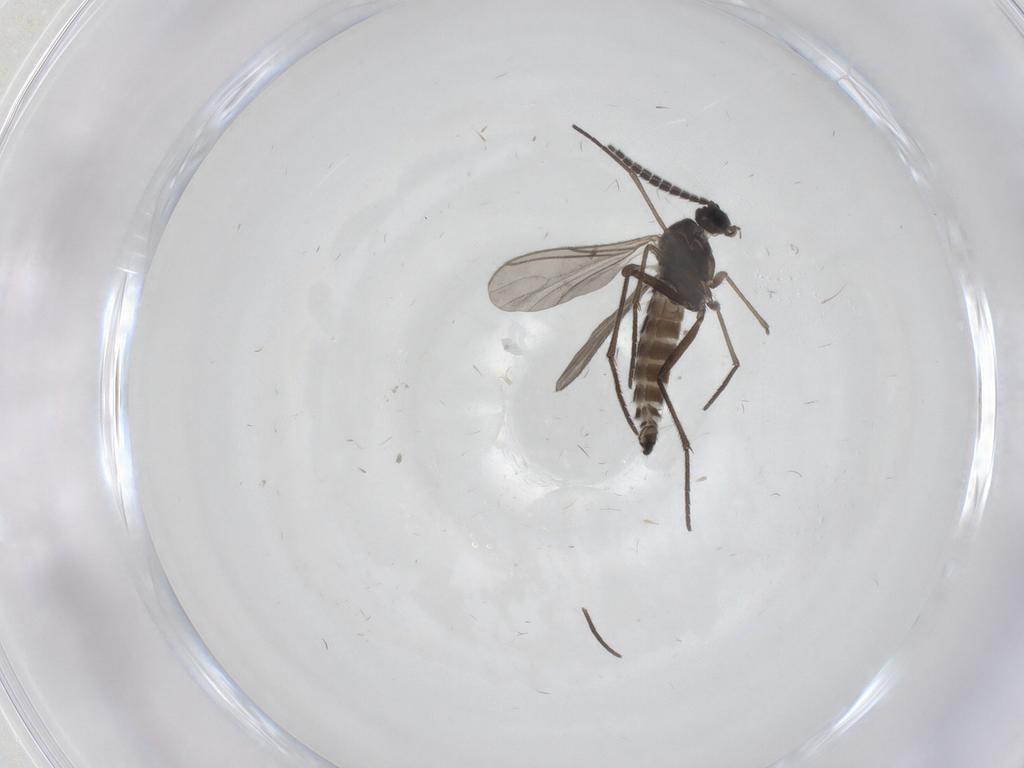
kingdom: Animalia
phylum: Arthropoda
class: Insecta
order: Diptera
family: Sciaridae
